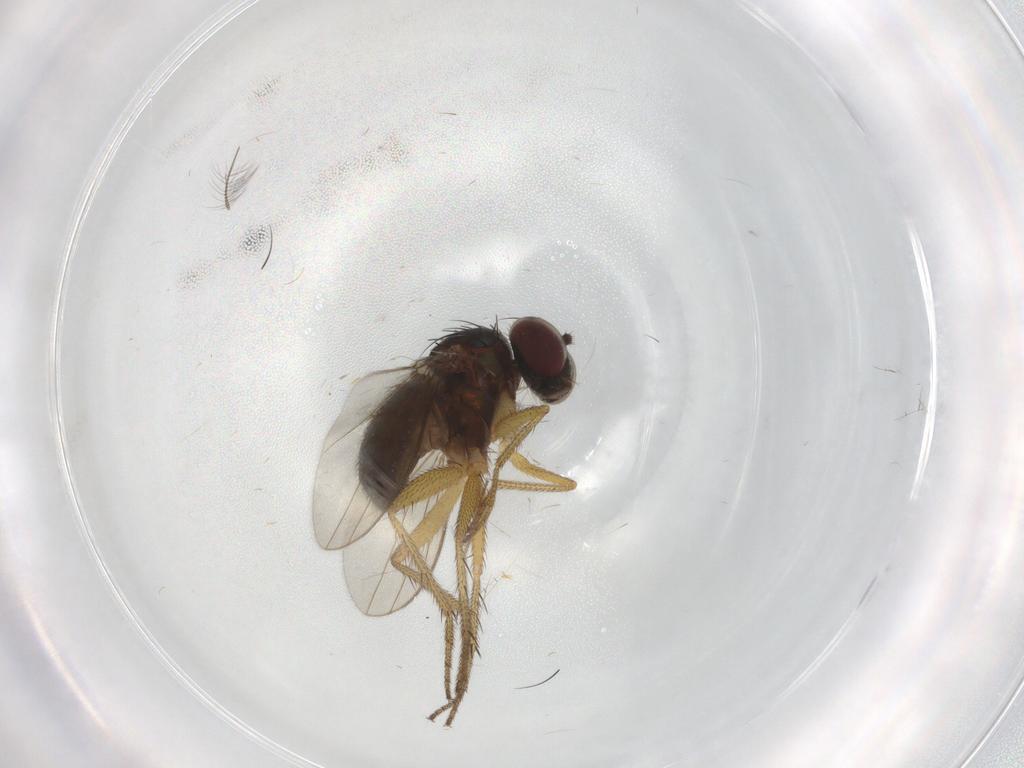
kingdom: Animalia
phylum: Arthropoda
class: Insecta
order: Diptera
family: Chironomidae
